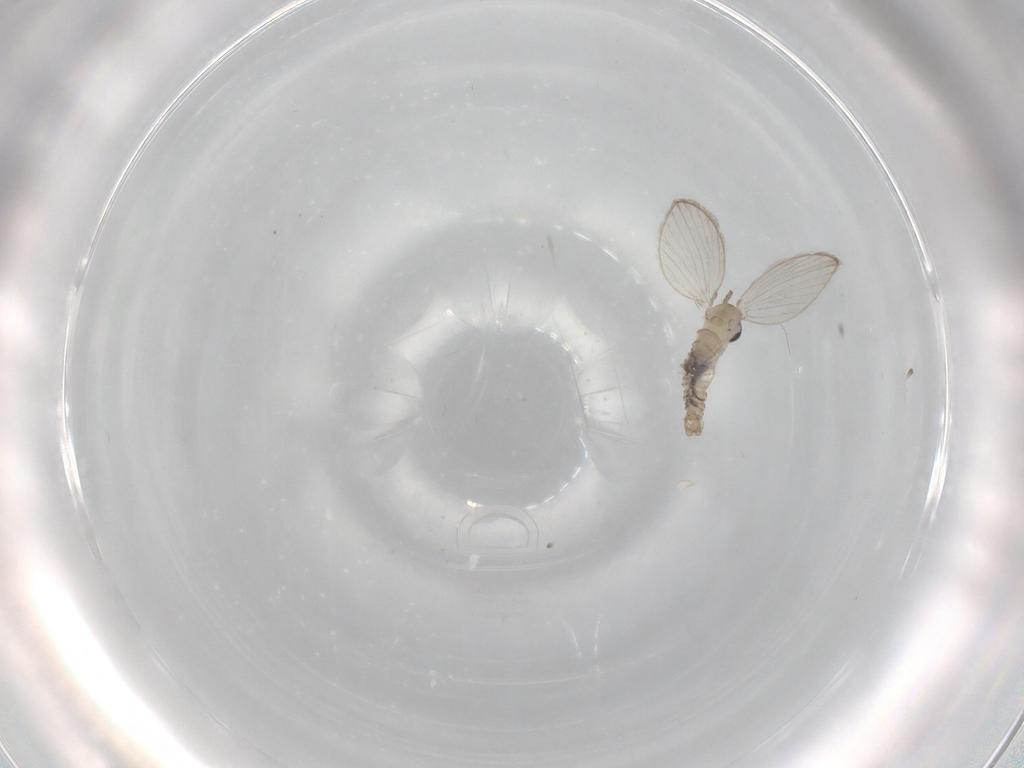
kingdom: Animalia
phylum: Arthropoda
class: Insecta
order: Diptera
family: Psychodidae
